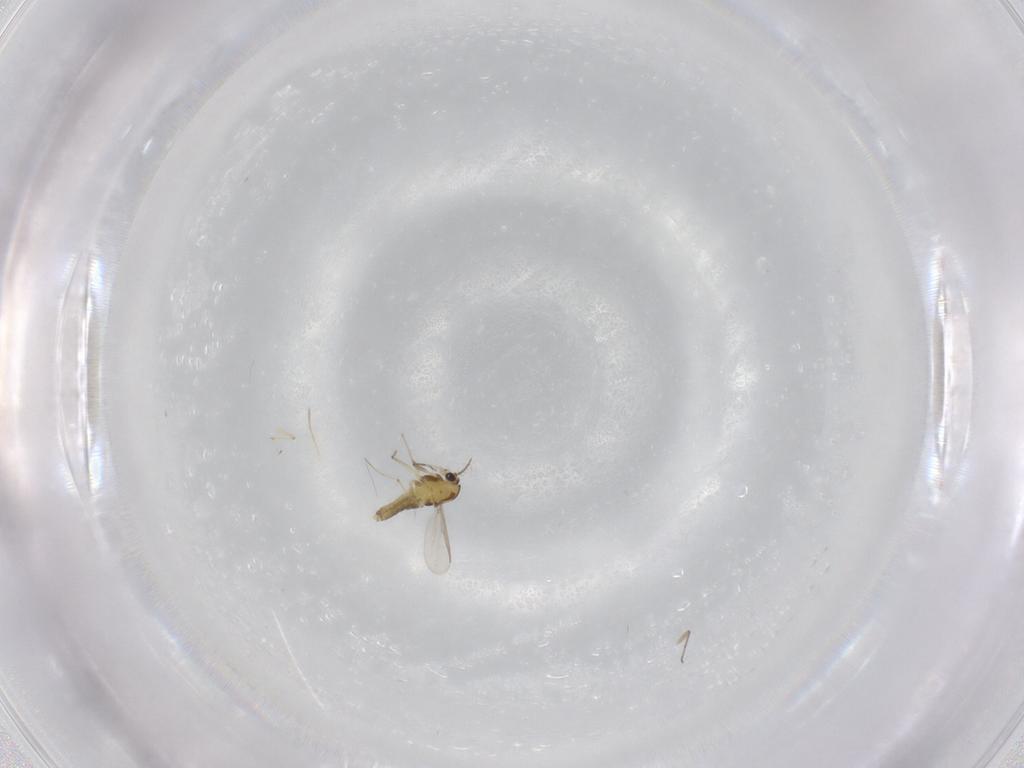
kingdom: Animalia
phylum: Arthropoda
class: Insecta
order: Diptera
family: Chironomidae
